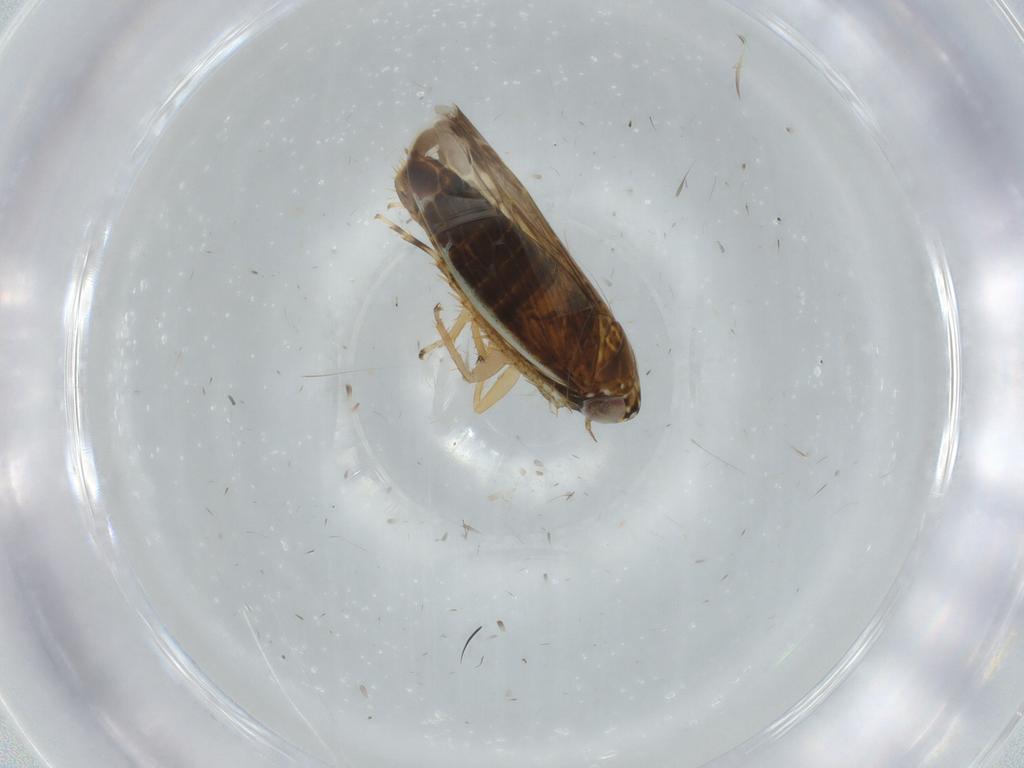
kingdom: Animalia
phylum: Arthropoda
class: Insecta
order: Hemiptera
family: Cicadellidae
